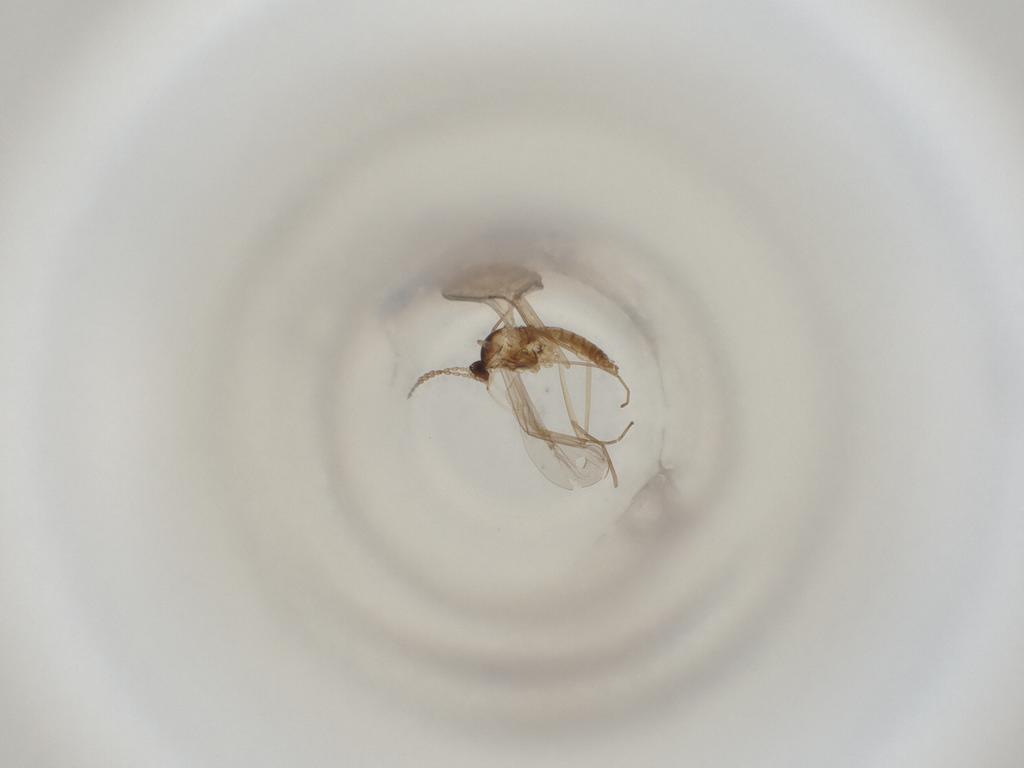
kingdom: Animalia
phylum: Arthropoda
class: Insecta
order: Diptera
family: Cecidomyiidae
